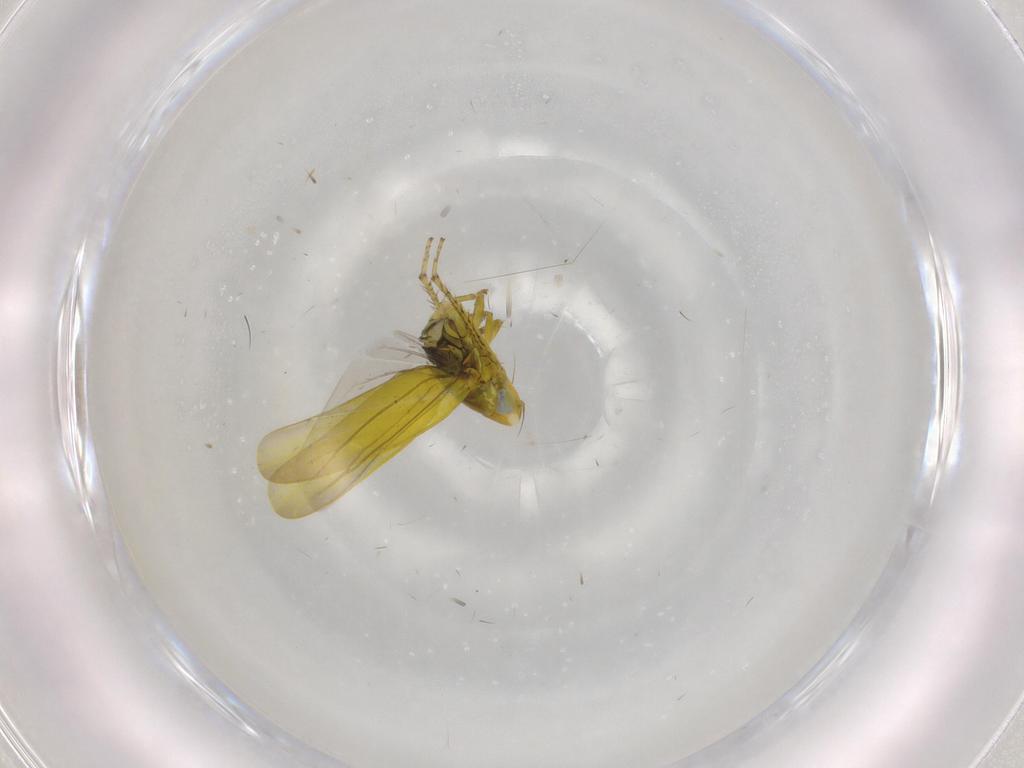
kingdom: Animalia
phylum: Arthropoda
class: Insecta
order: Hemiptera
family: Cicadellidae
